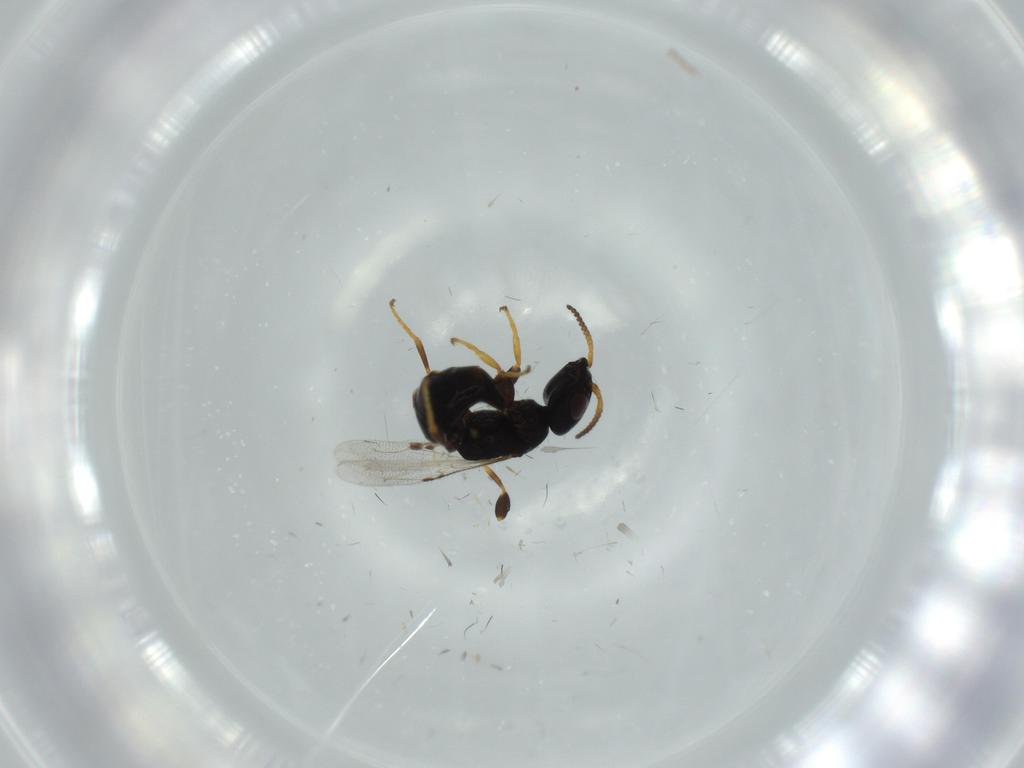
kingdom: Animalia
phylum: Arthropoda
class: Insecta
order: Hymenoptera
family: Bethylidae
